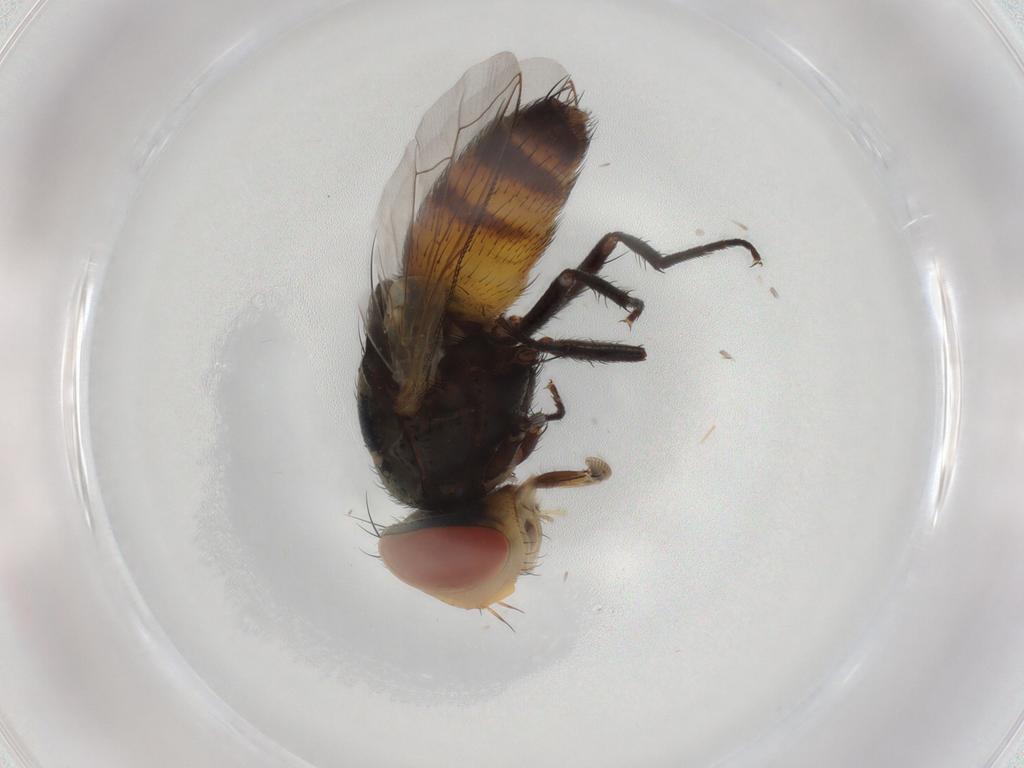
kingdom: Animalia
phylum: Arthropoda
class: Insecta
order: Diptera
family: Sarcophagidae
